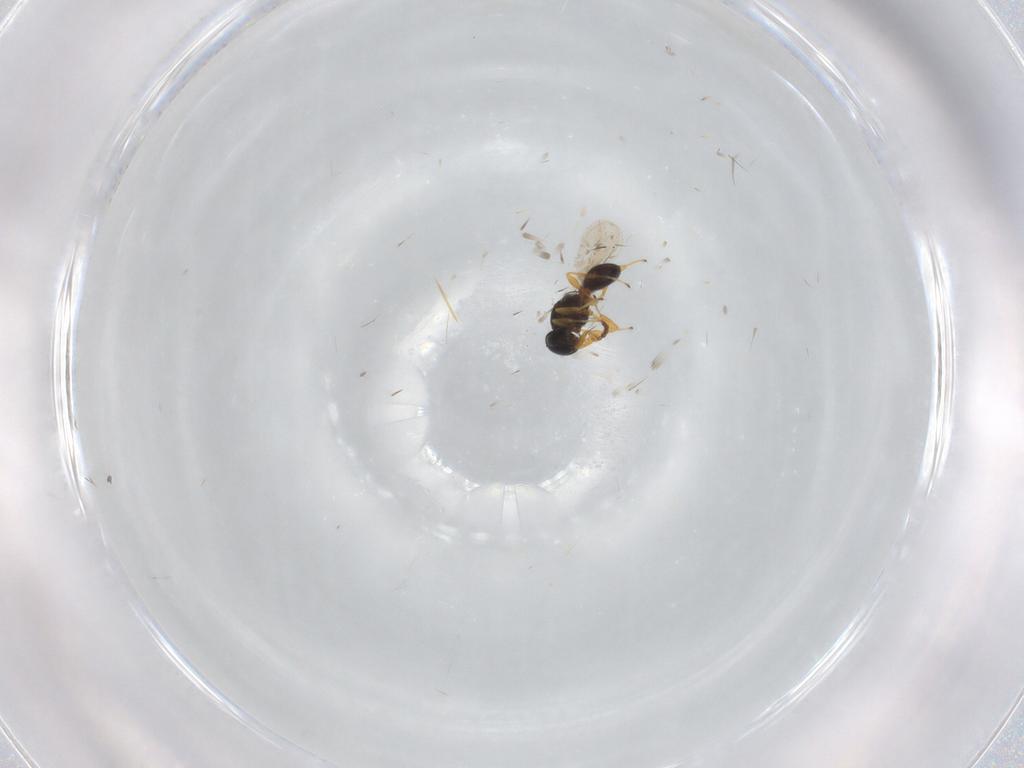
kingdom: Animalia
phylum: Arthropoda
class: Insecta
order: Hymenoptera
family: Platygastridae
